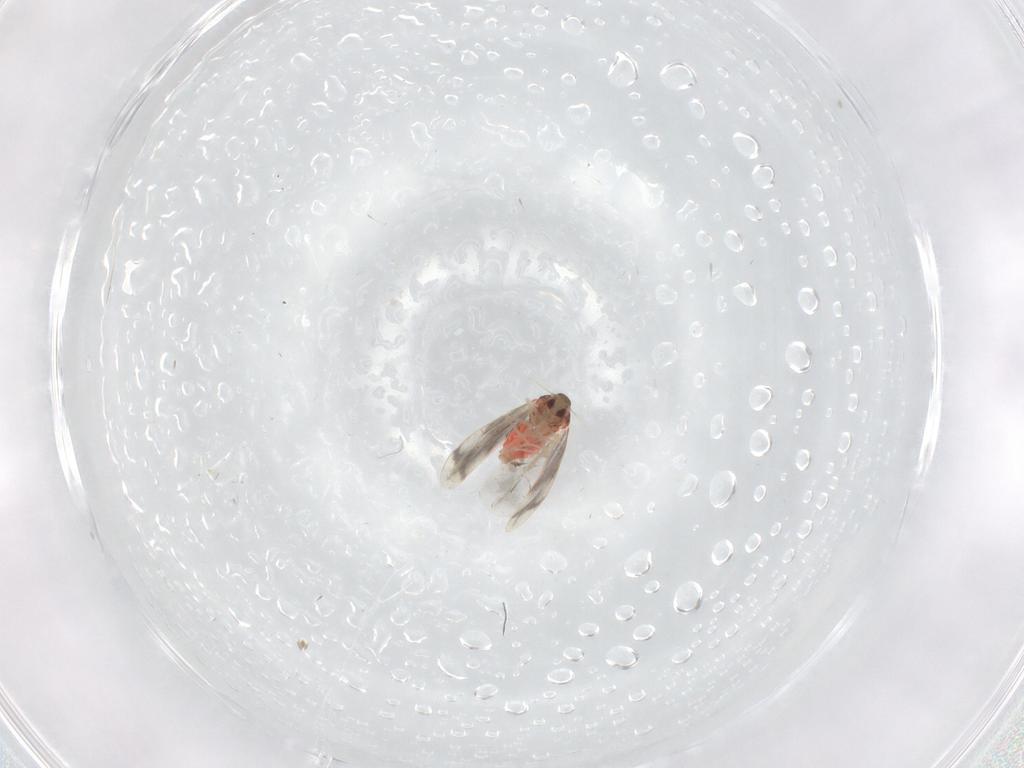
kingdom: Animalia
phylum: Arthropoda
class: Insecta
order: Hemiptera
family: Aleyrodidae
